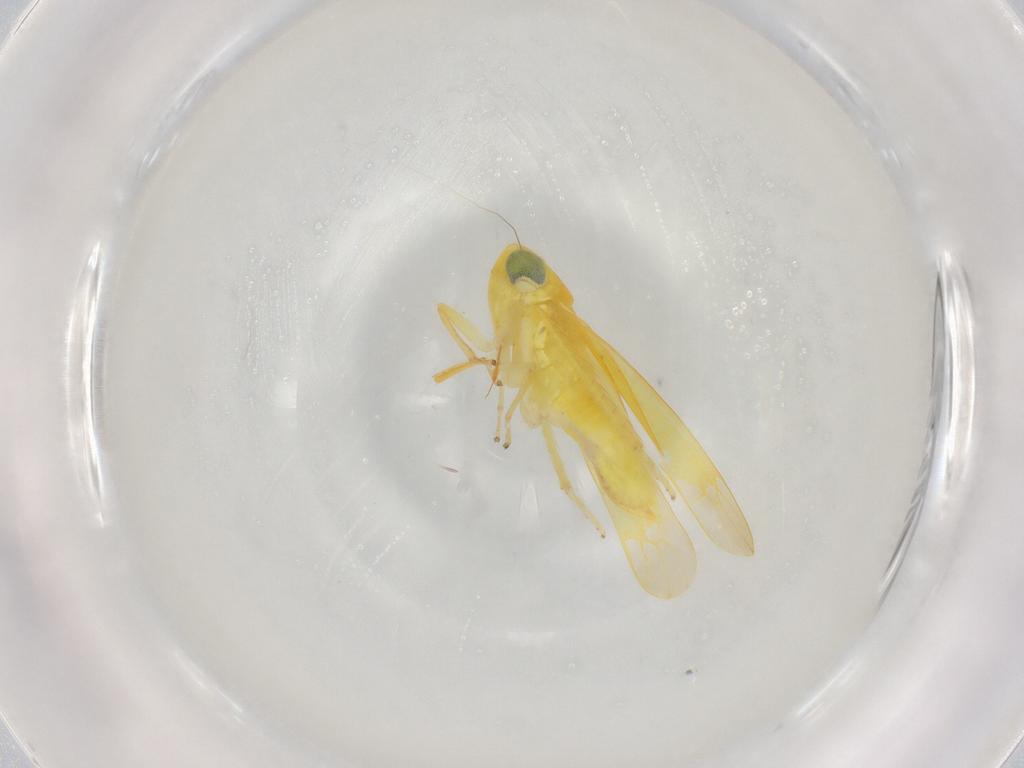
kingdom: Animalia
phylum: Arthropoda
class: Insecta
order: Hemiptera
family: Cicadellidae
